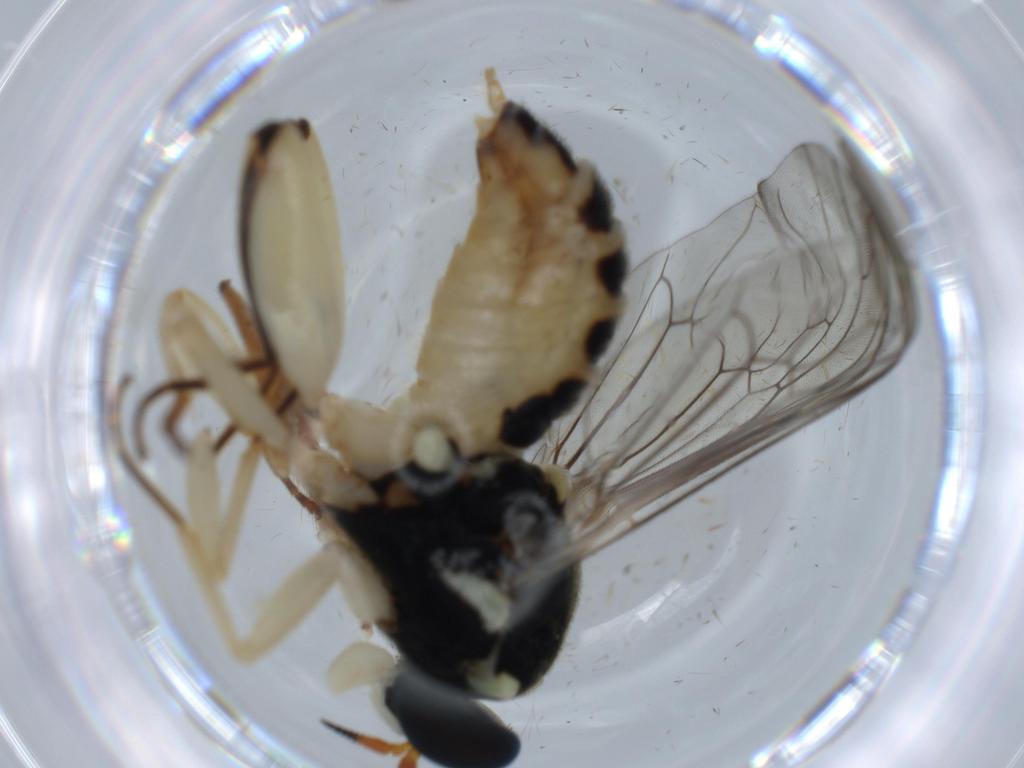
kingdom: Animalia
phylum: Arthropoda
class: Insecta
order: Diptera
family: Phoridae
